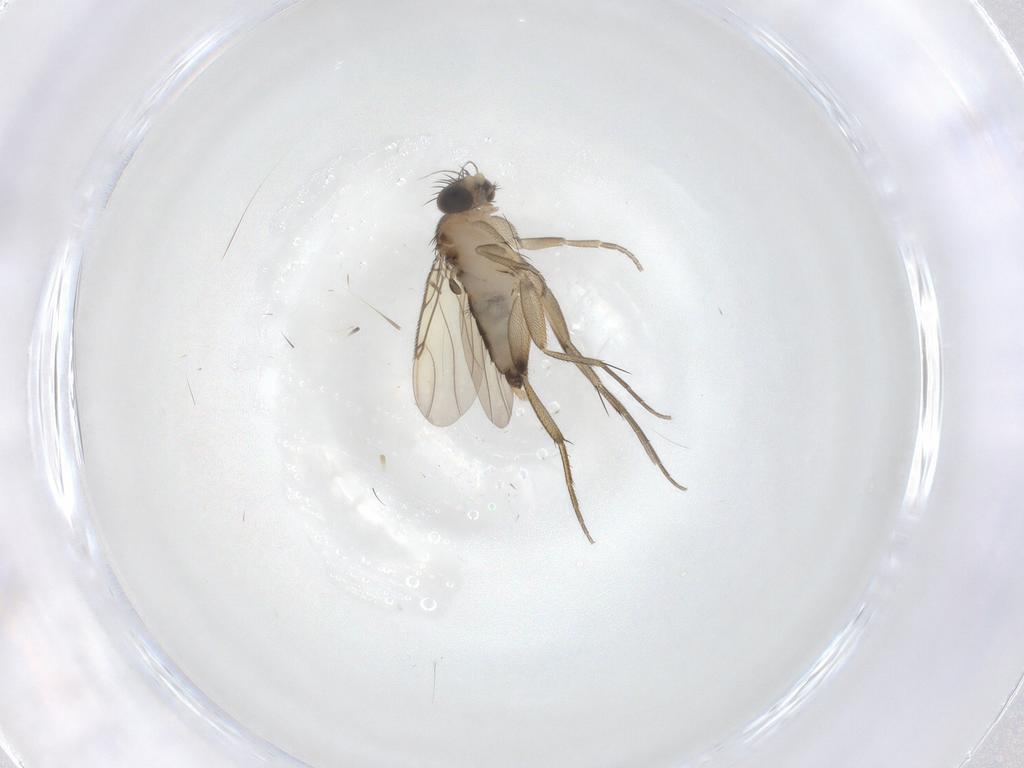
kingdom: Animalia
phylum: Arthropoda
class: Insecta
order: Diptera
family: Phoridae
